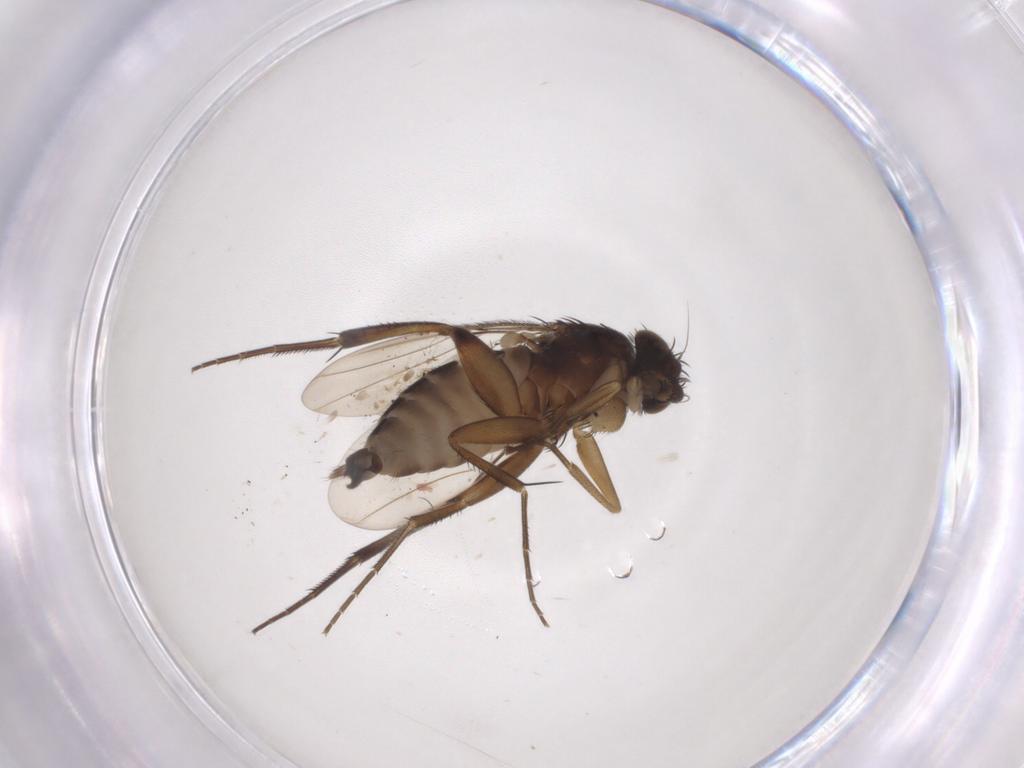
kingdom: Animalia
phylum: Arthropoda
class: Insecta
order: Diptera
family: Phoridae
